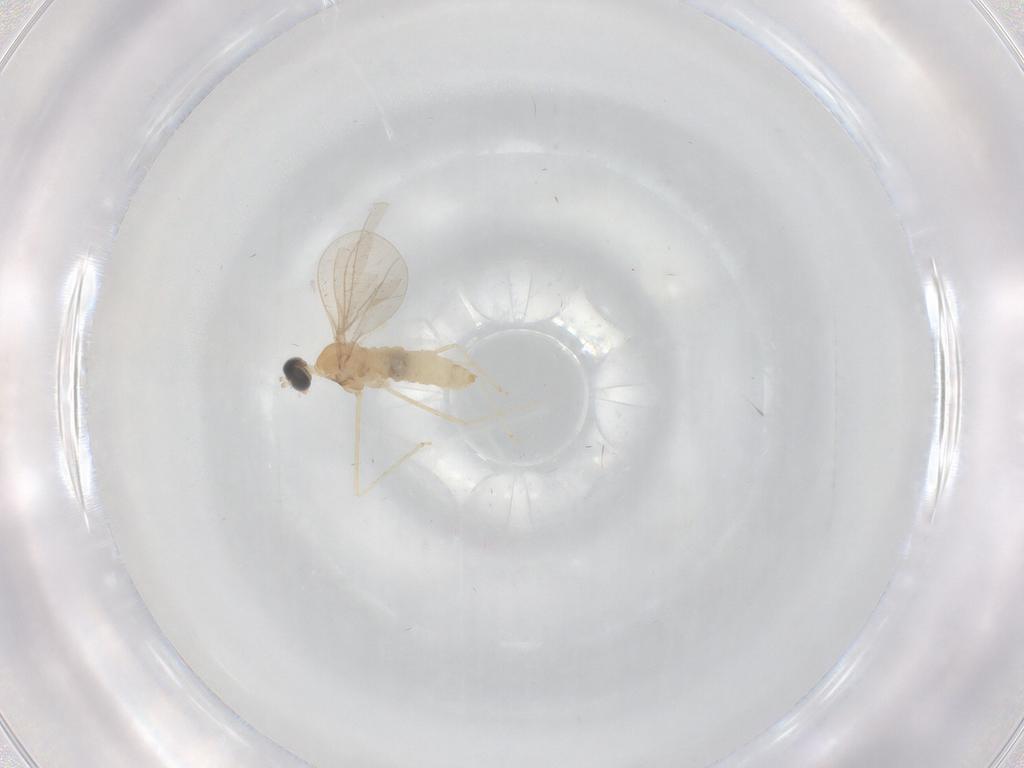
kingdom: Animalia
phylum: Arthropoda
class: Insecta
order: Diptera
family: Cecidomyiidae
